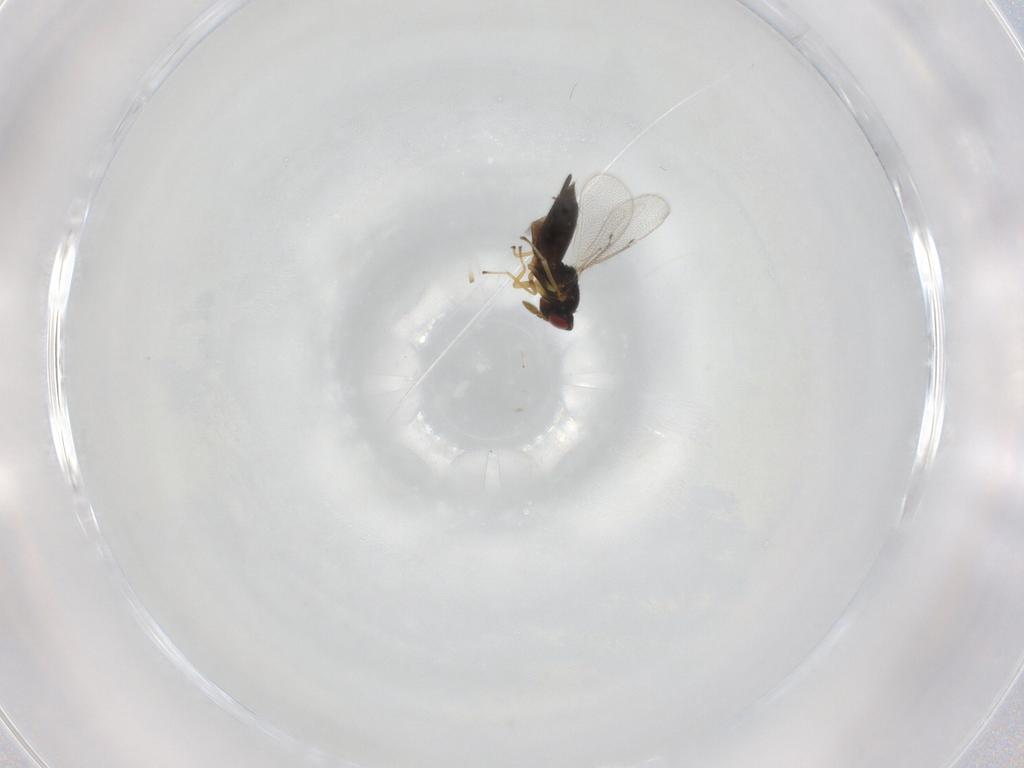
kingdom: Animalia
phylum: Arthropoda
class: Insecta
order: Hymenoptera
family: Eulophidae
